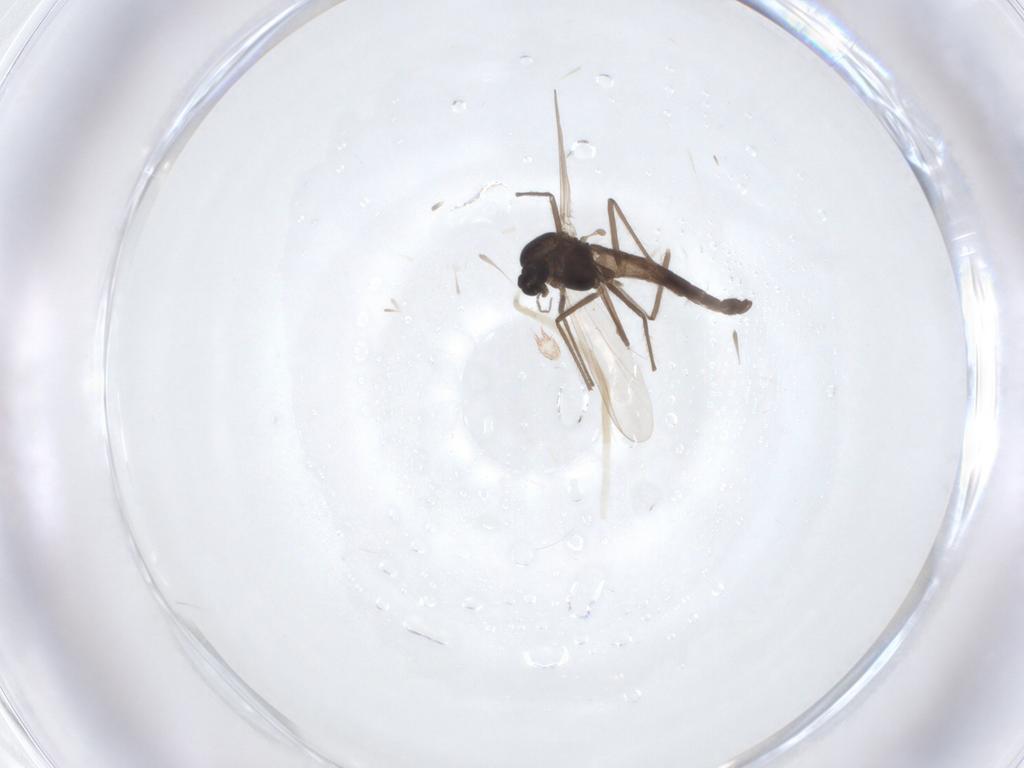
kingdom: Animalia
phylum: Arthropoda
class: Insecta
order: Diptera
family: Chironomidae
